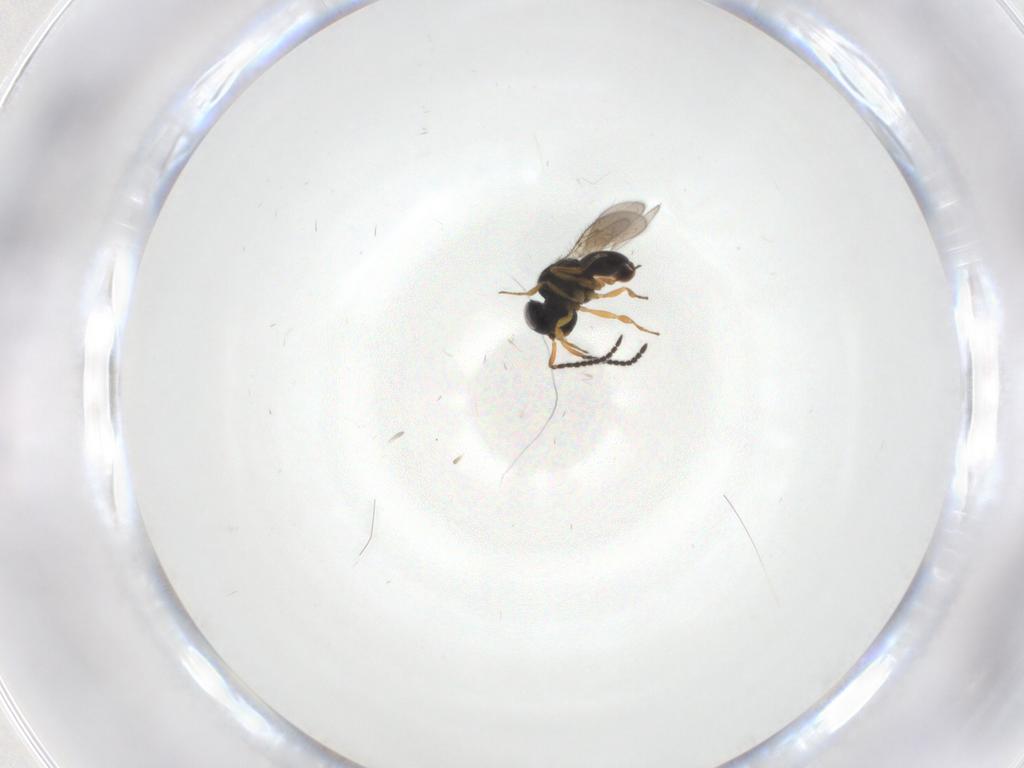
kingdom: Animalia
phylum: Arthropoda
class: Insecta
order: Hymenoptera
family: Scelionidae
